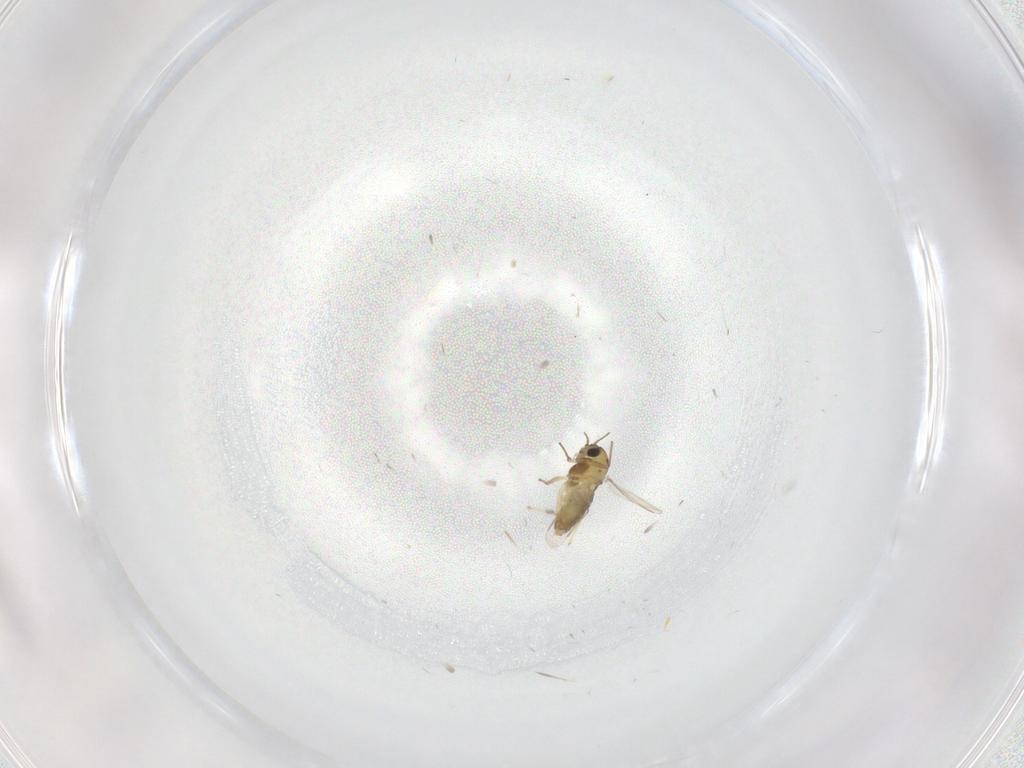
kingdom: Animalia
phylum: Arthropoda
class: Insecta
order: Diptera
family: Chironomidae
